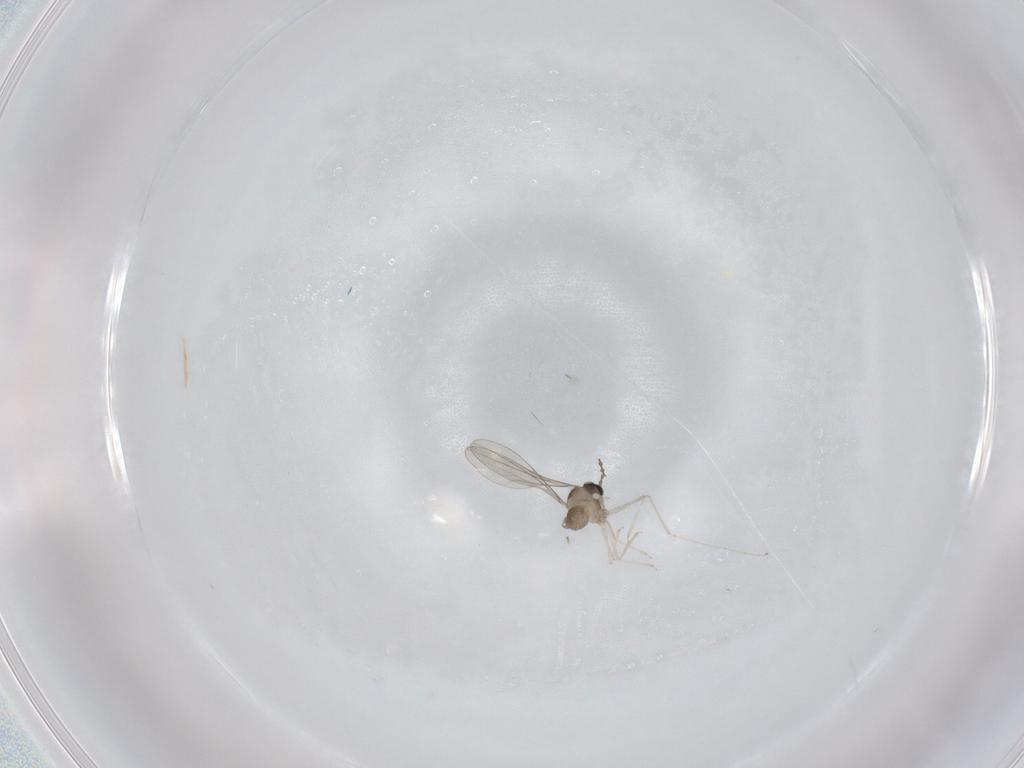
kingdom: Animalia
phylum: Arthropoda
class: Insecta
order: Diptera
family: Cecidomyiidae
